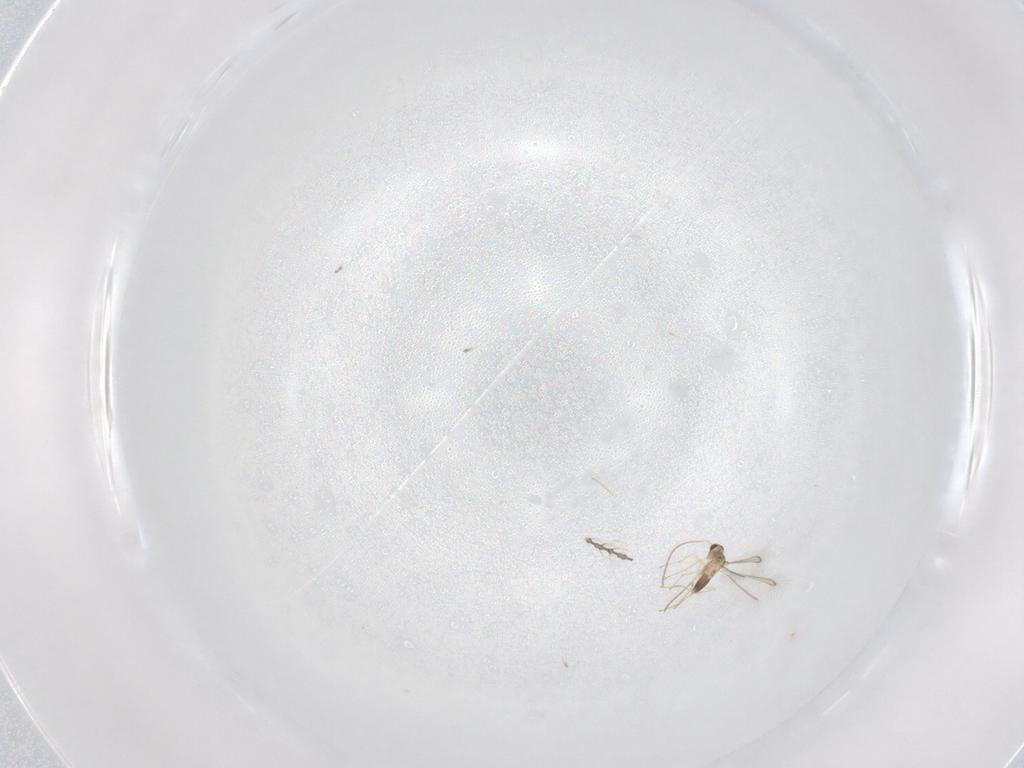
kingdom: Animalia
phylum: Arthropoda
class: Insecta
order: Hymenoptera
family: Mymaridae
